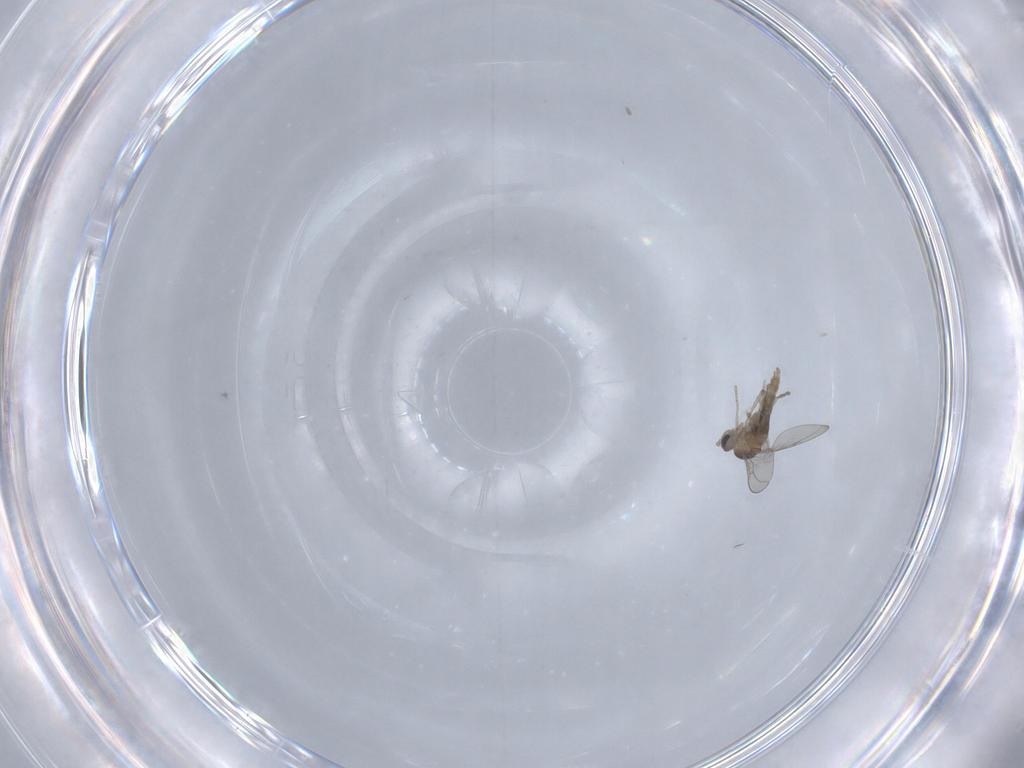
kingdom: Animalia
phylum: Arthropoda
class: Insecta
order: Diptera
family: Cecidomyiidae
